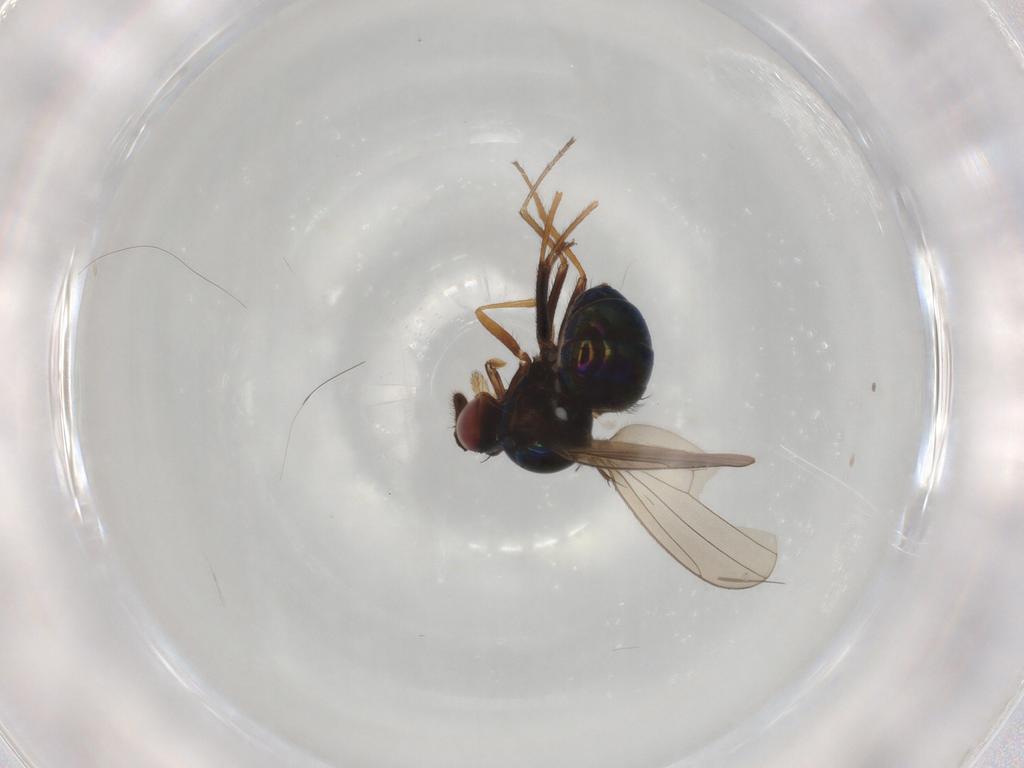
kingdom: Animalia
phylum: Arthropoda
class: Insecta
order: Diptera
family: Ephydridae
